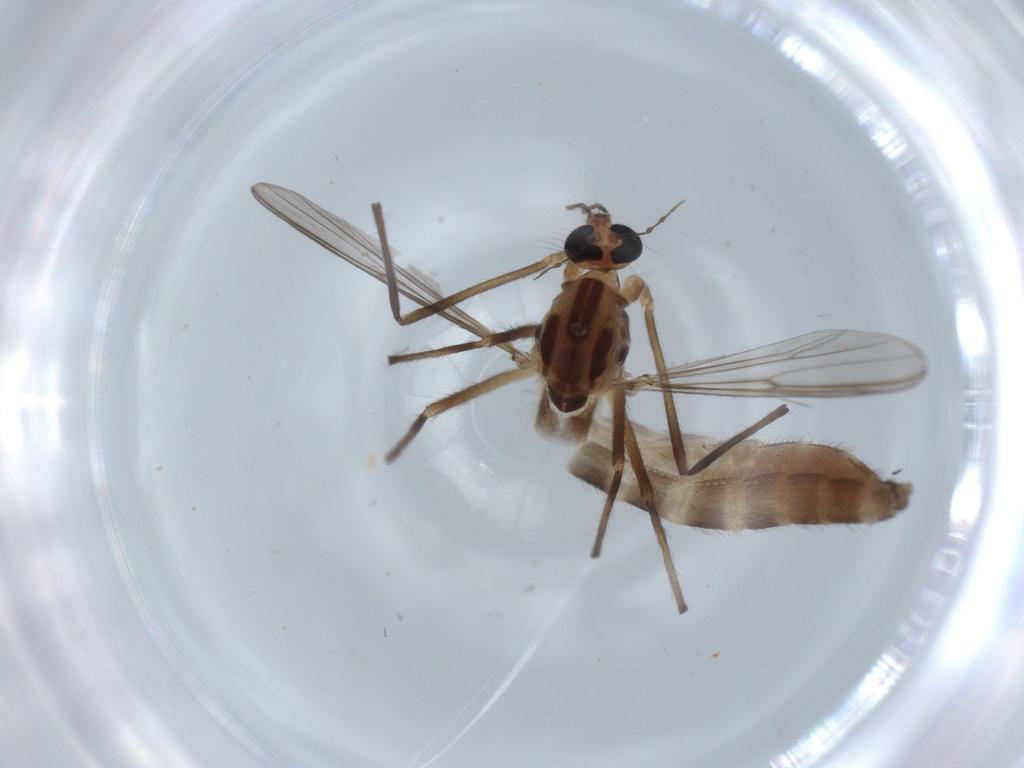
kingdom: Animalia
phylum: Arthropoda
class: Insecta
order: Diptera
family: Chironomidae
